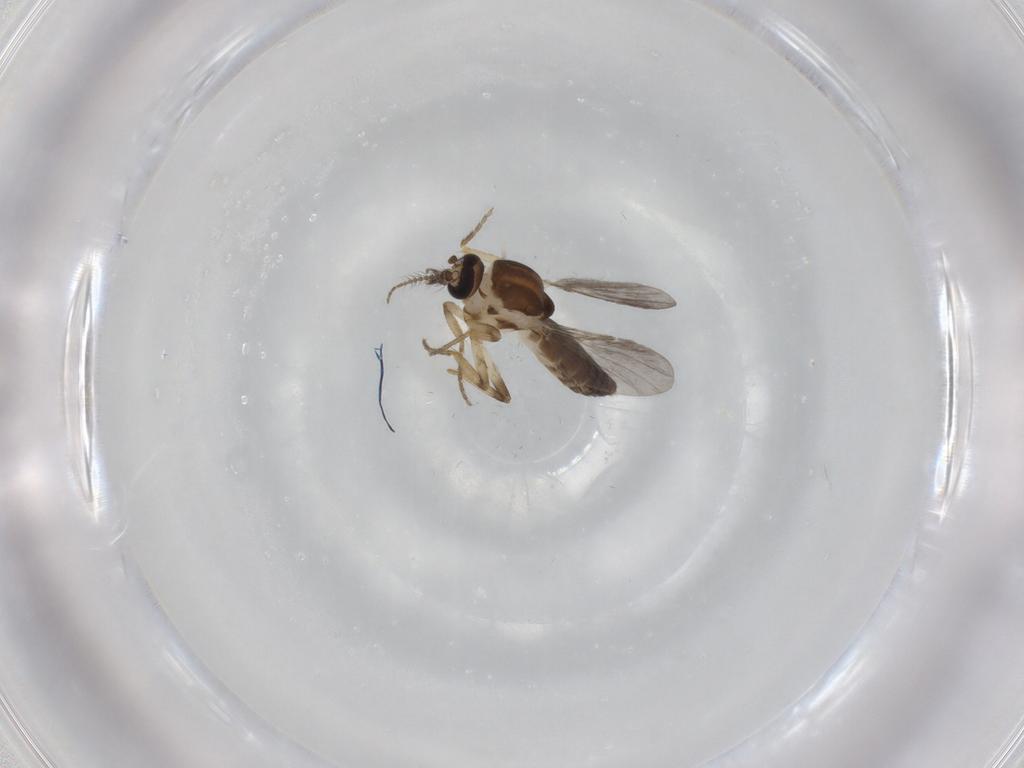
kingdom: Animalia
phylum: Arthropoda
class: Insecta
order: Diptera
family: Ceratopogonidae
